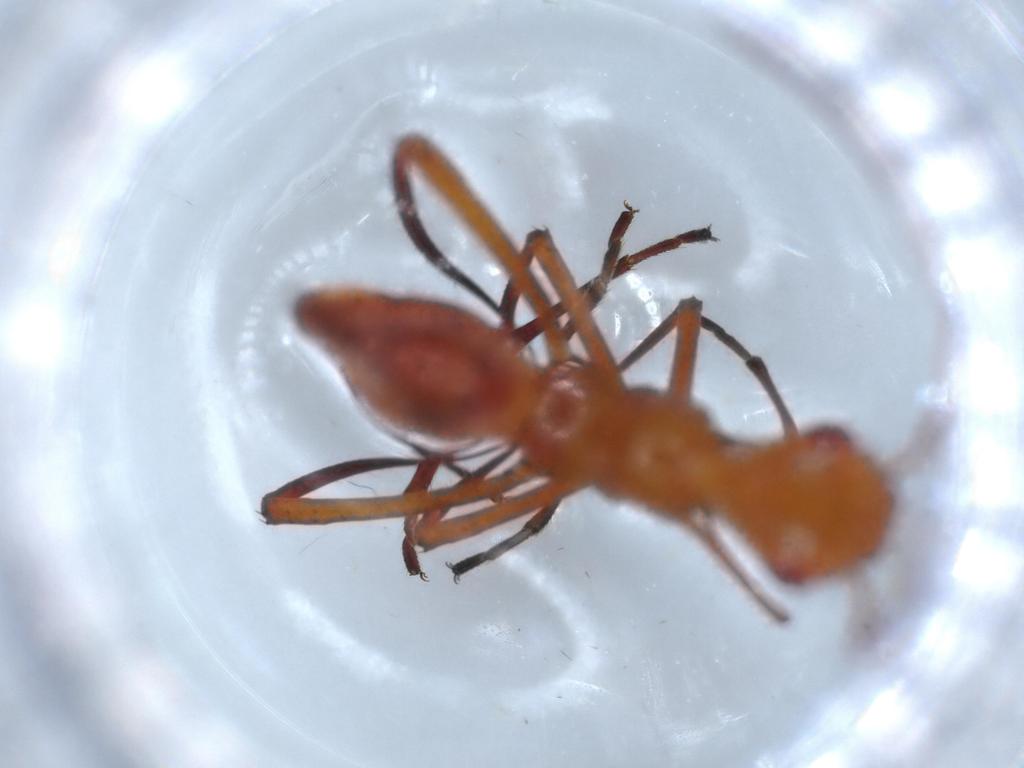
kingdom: Animalia
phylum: Arthropoda
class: Insecta
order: Hemiptera
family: Alydidae
